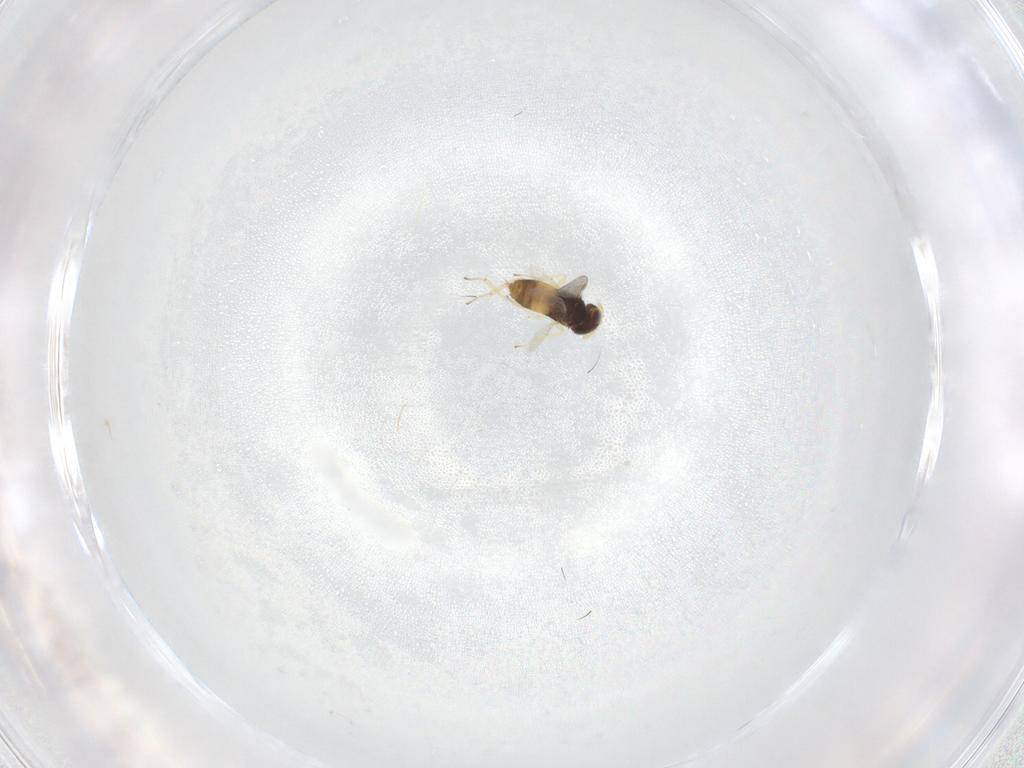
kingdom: Animalia
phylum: Arthropoda
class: Insecta
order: Hymenoptera
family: Aphelinidae
